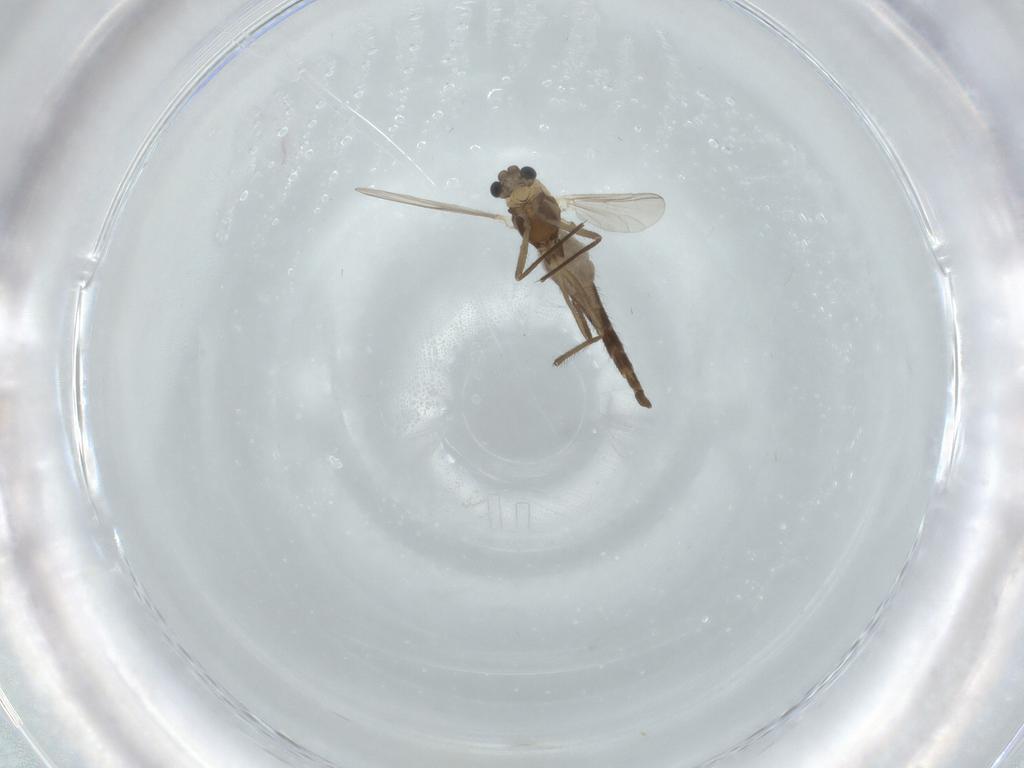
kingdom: Animalia
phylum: Arthropoda
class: Insecta
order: Diptera
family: Chironomidae
